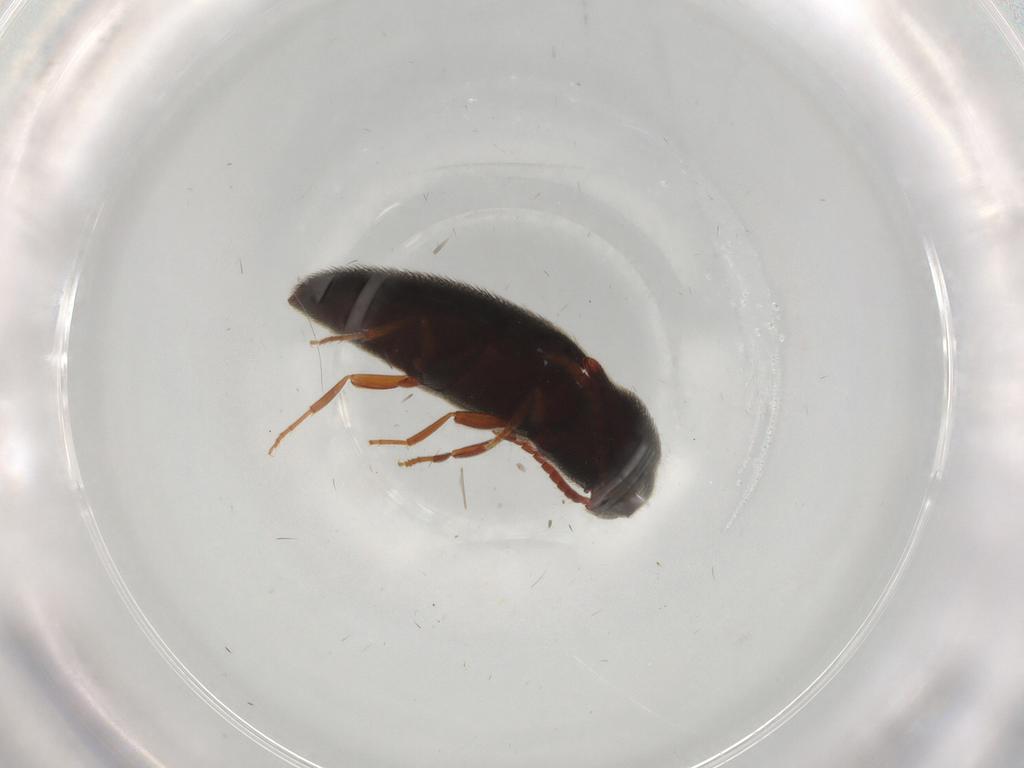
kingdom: Animalia
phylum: Arthropoda
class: Insecta
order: Coleoptera
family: Eucnemidae
